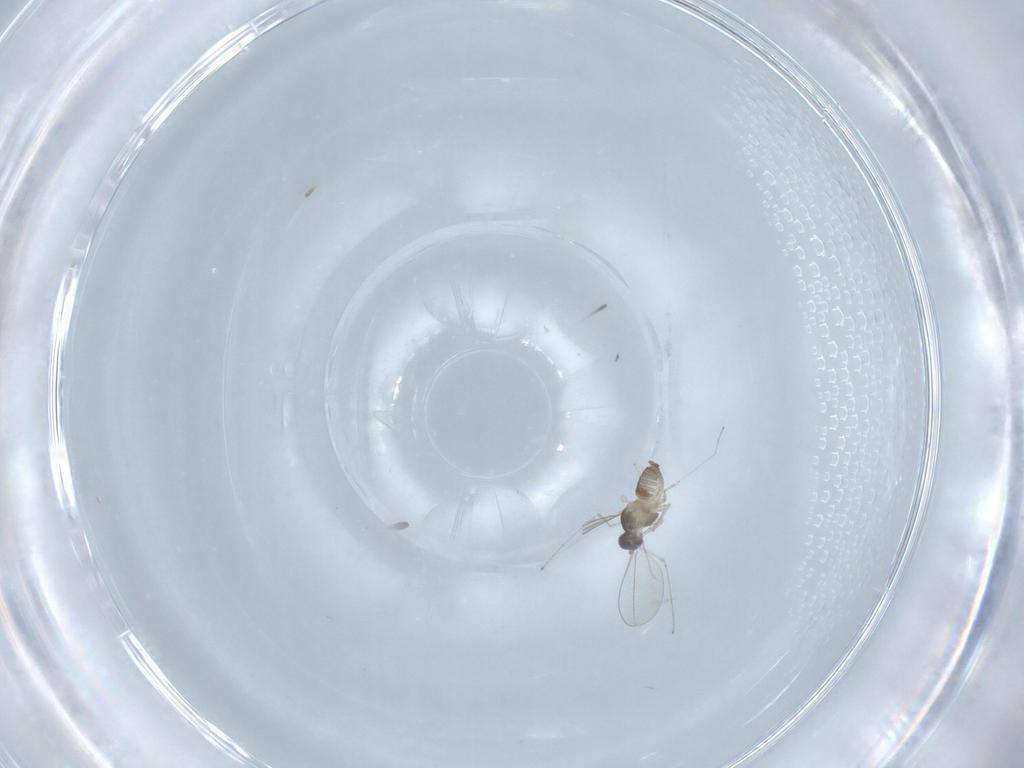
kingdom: Animalia
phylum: Arthropoda
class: Insecta
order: Diptera
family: Cecidomyiidae
